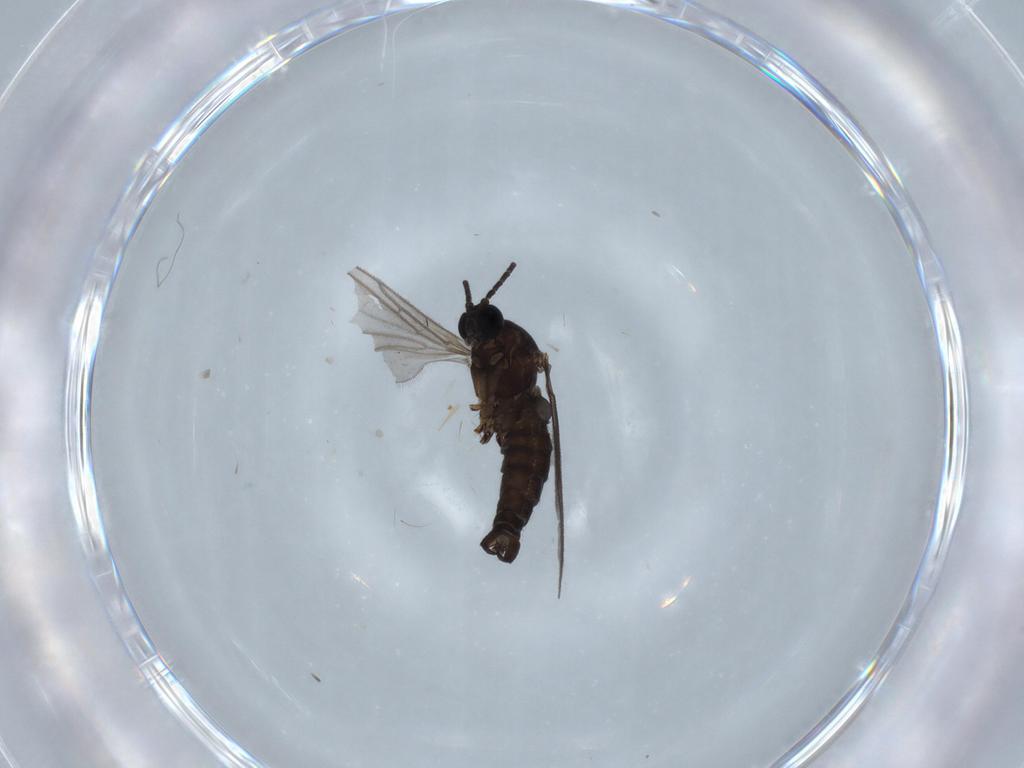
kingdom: Animalia
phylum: Arthropoda
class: Insecta
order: Diptera
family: Sciaridae
